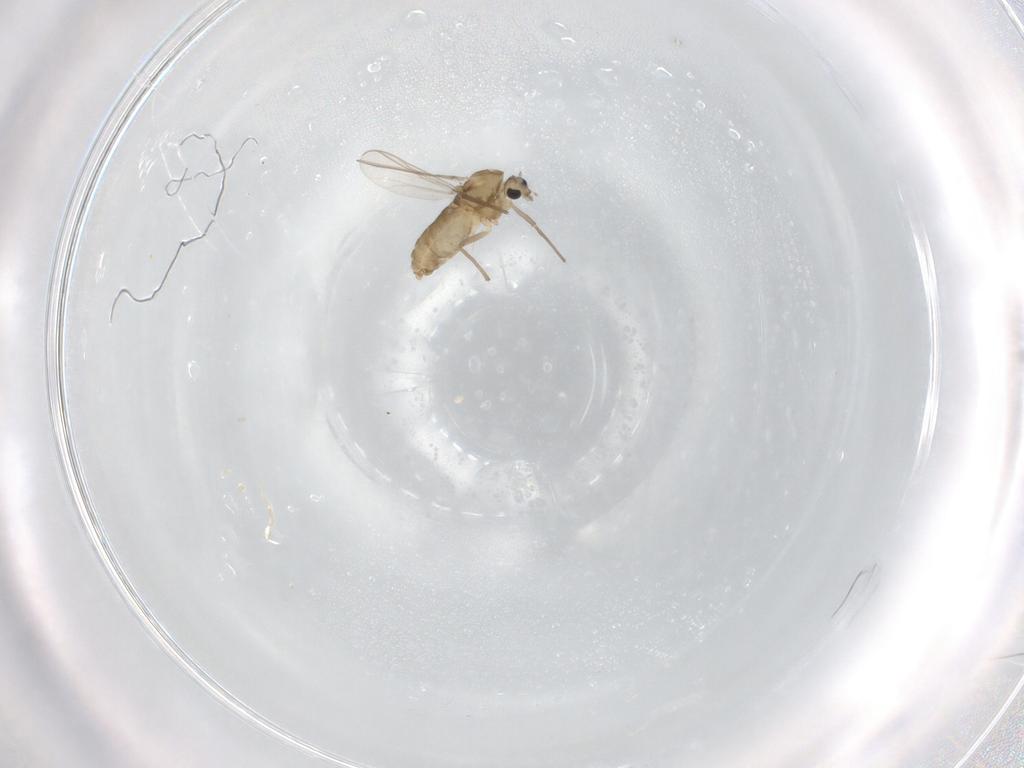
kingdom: Animalia
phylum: Arthropoda
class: Insecta
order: Diptera
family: Chironomidae
